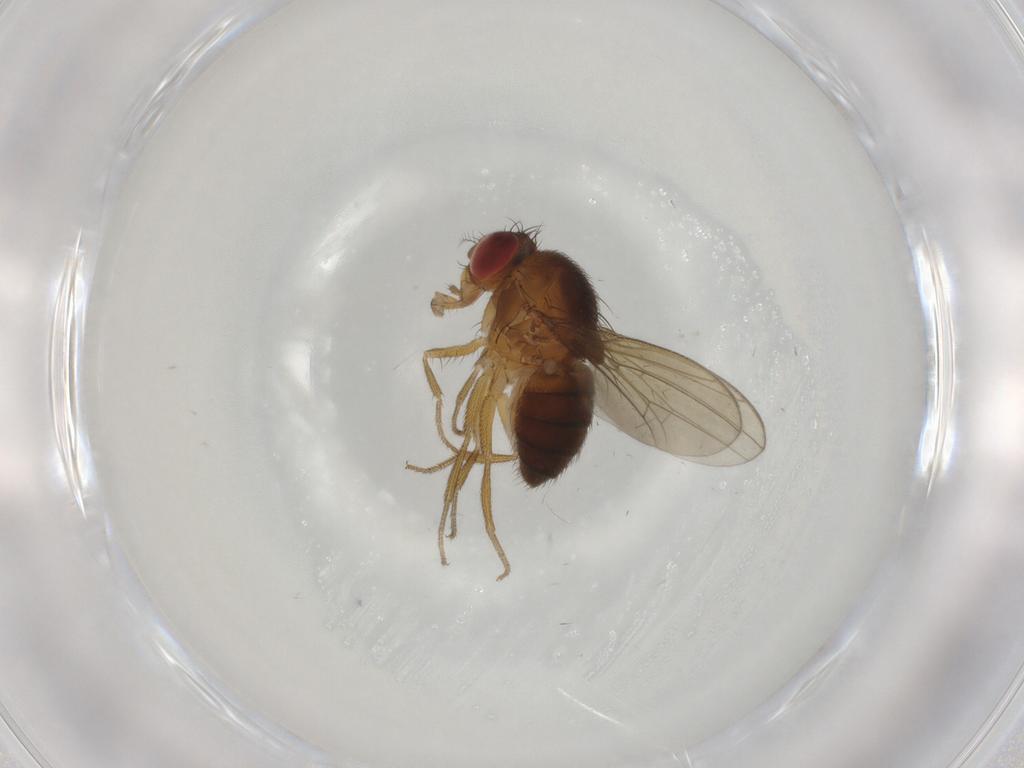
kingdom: Animalia
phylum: Arthropoda
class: Insecta
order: Diptera
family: Drosophilidae
